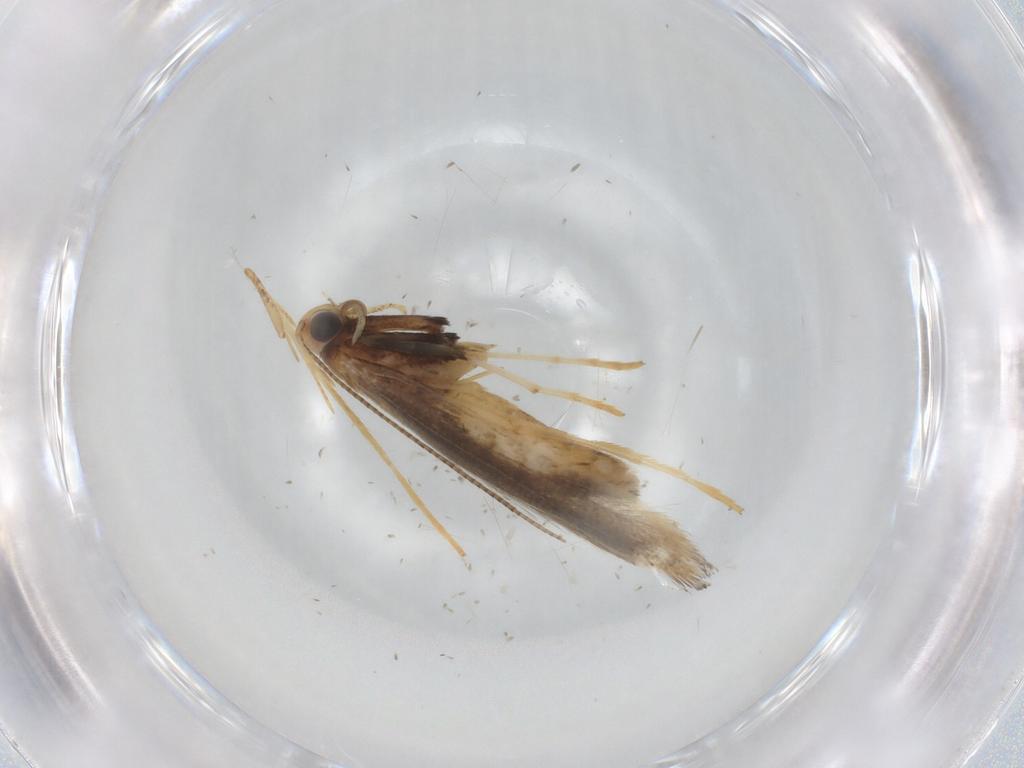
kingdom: Animalia
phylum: Arthropoda
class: Insecta
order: Lepidoptera
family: Gracillariidae
